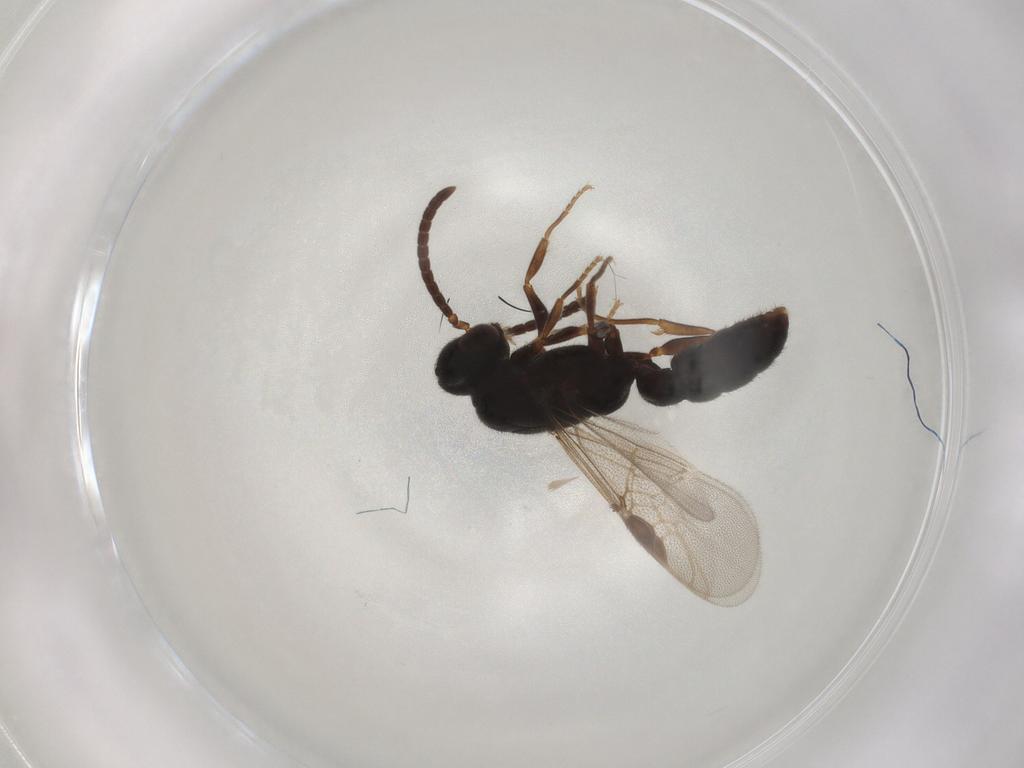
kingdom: Animalia
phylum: Arthropoda
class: Insecta
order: Hymenoptera
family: Formicidae
